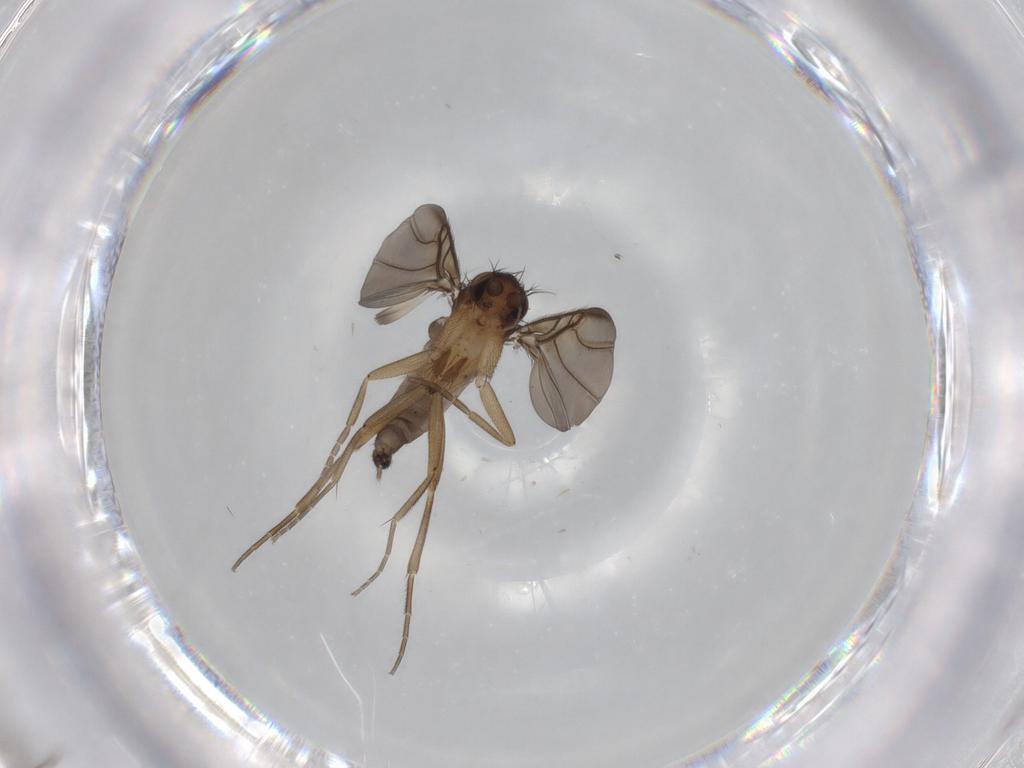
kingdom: Animalia
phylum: Arthropoda
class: Insecta
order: Diptera
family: Phoridae
